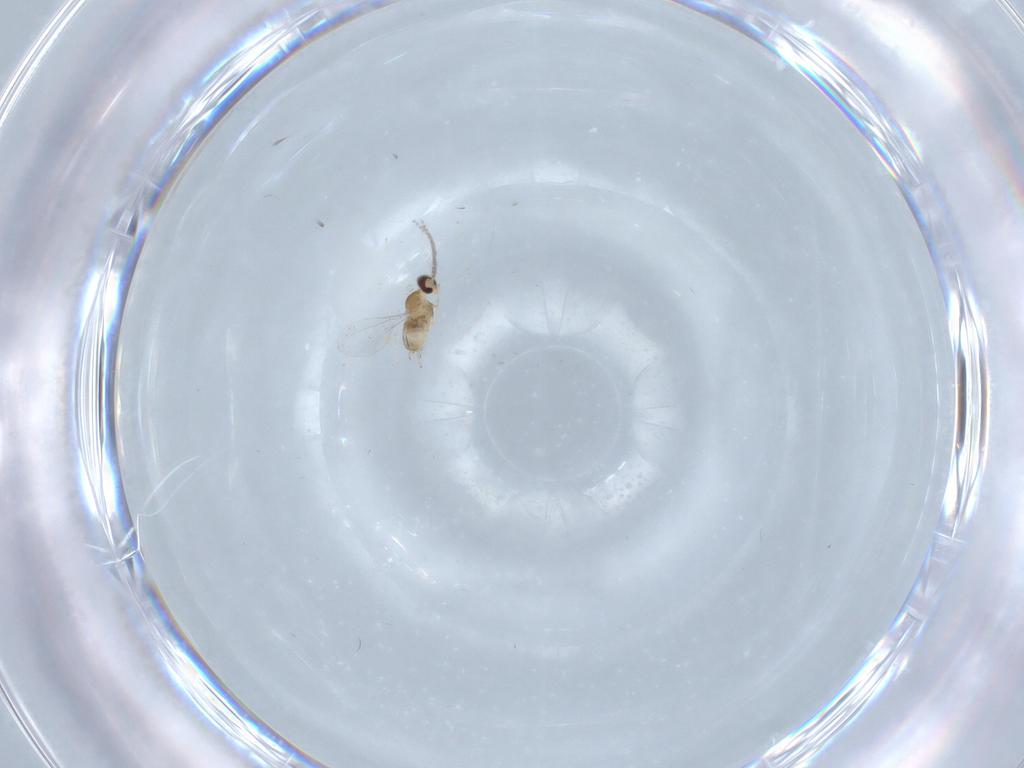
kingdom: Animalia
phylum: Arthropoda
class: Insecta
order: Diptera
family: Cecidomyiidae
